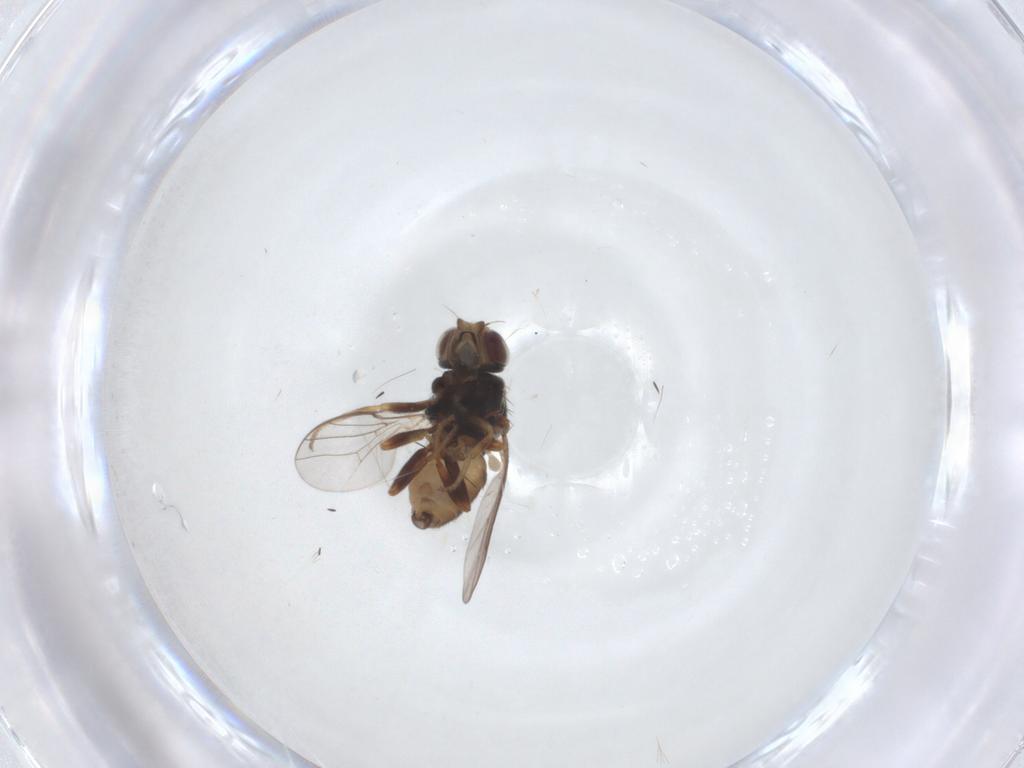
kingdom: Animalia
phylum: Arthropoda
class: Insecta
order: Diptera
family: Chloropidae
